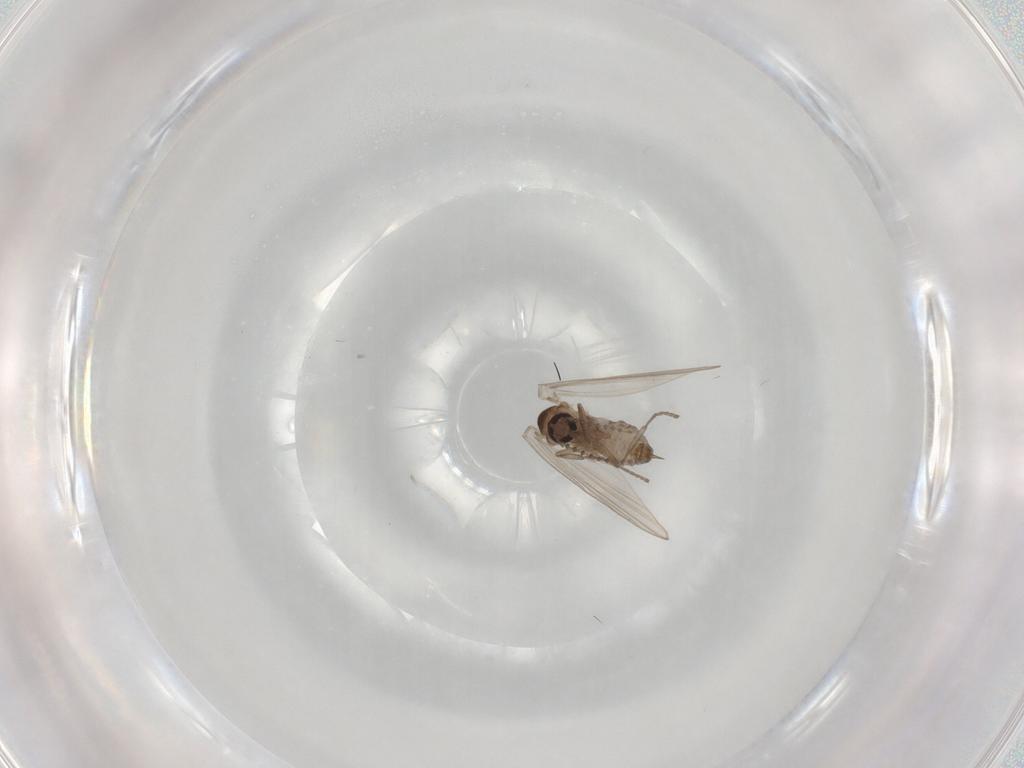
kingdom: Animalia
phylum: Arthropoda
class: Insecta
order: Diptera
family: Psychodidae
